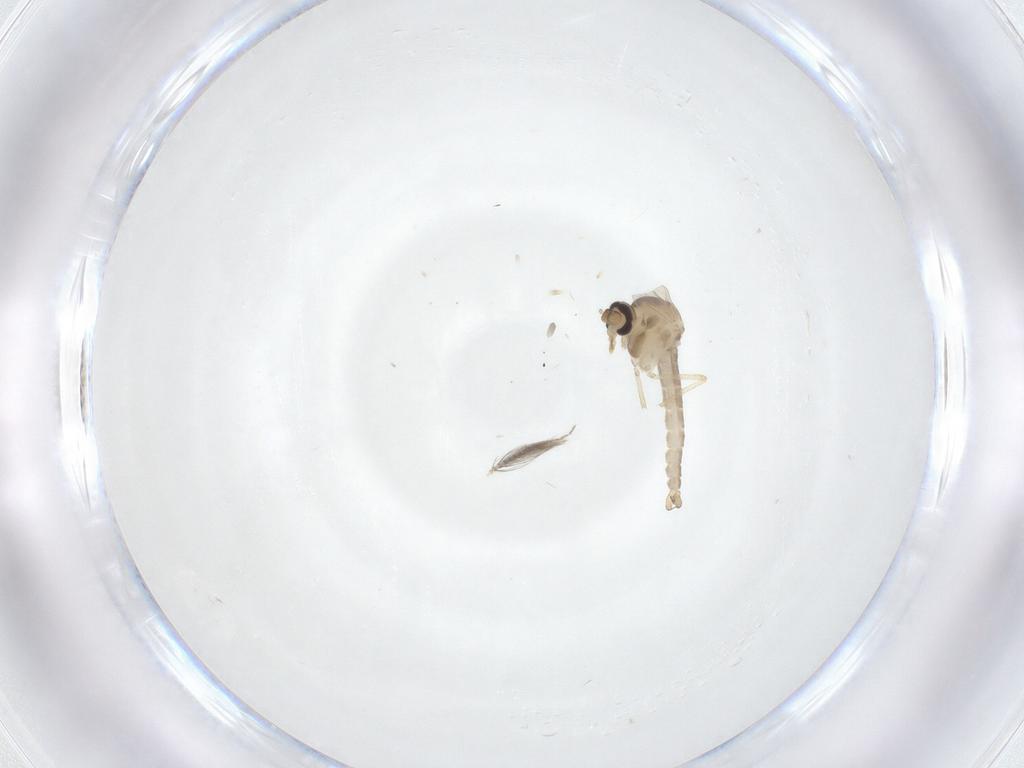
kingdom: Animalia
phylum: Arthropoda
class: Insecta
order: Diptera
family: Ceratopogonidae
